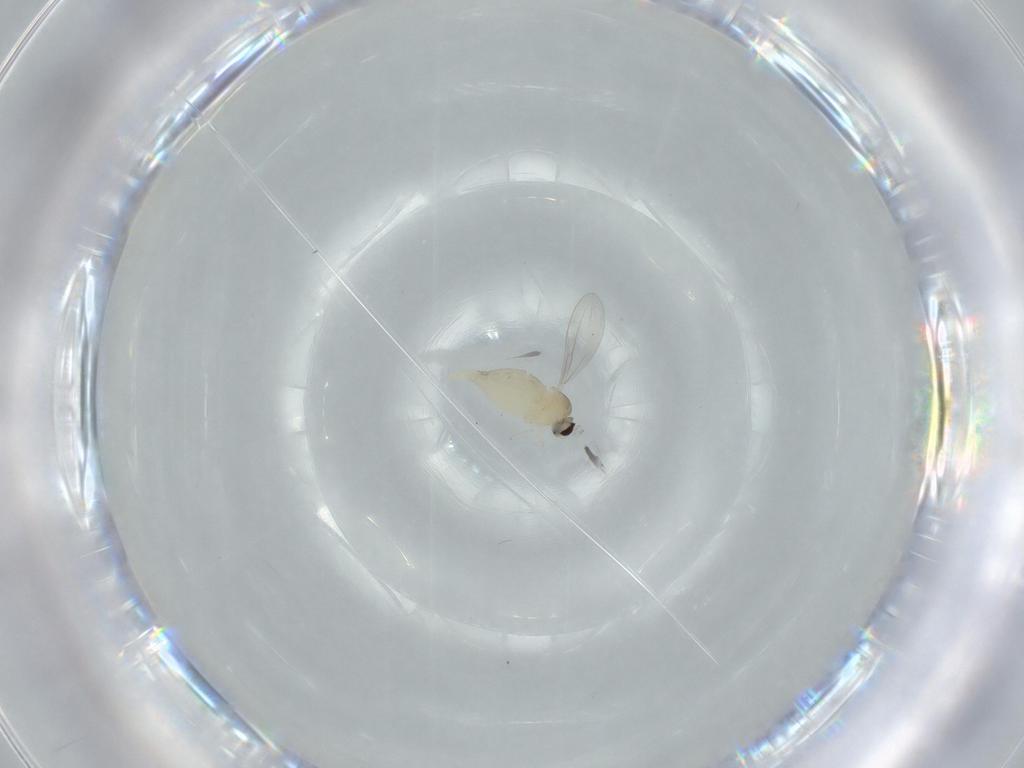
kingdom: Animalia
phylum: Arthropoda
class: Insecta
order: Diptera
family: Cecidomyiidae
